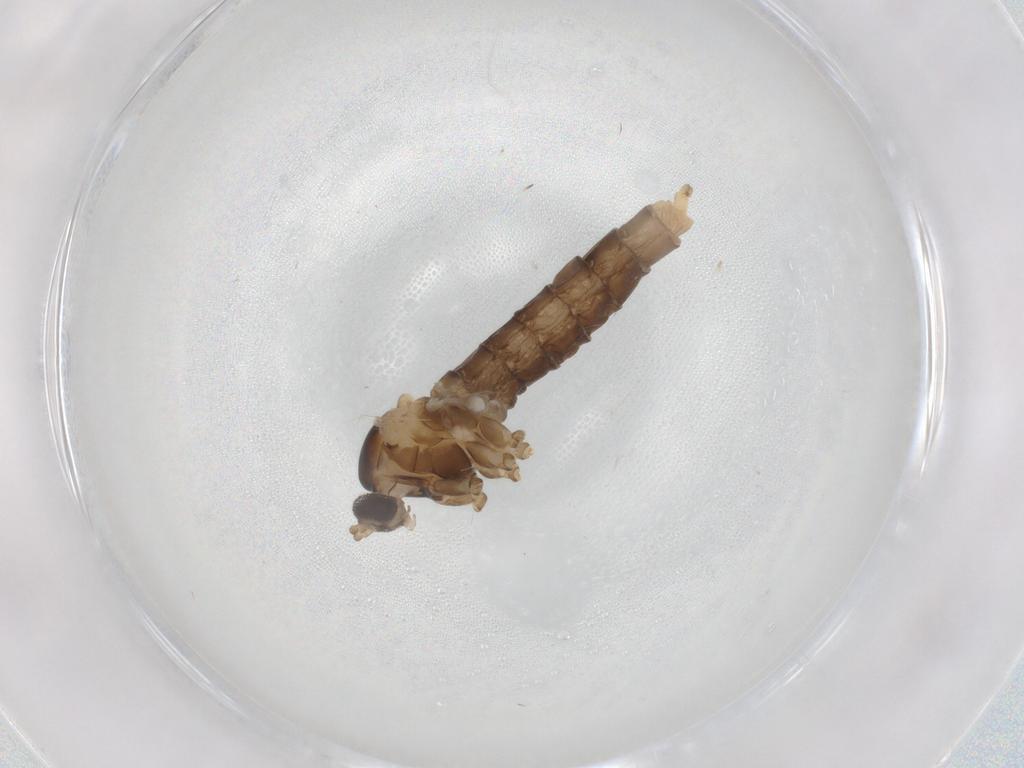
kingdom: Animalia
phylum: Arthropoda
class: Insecta
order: Diptera
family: Cecidomyiidae
